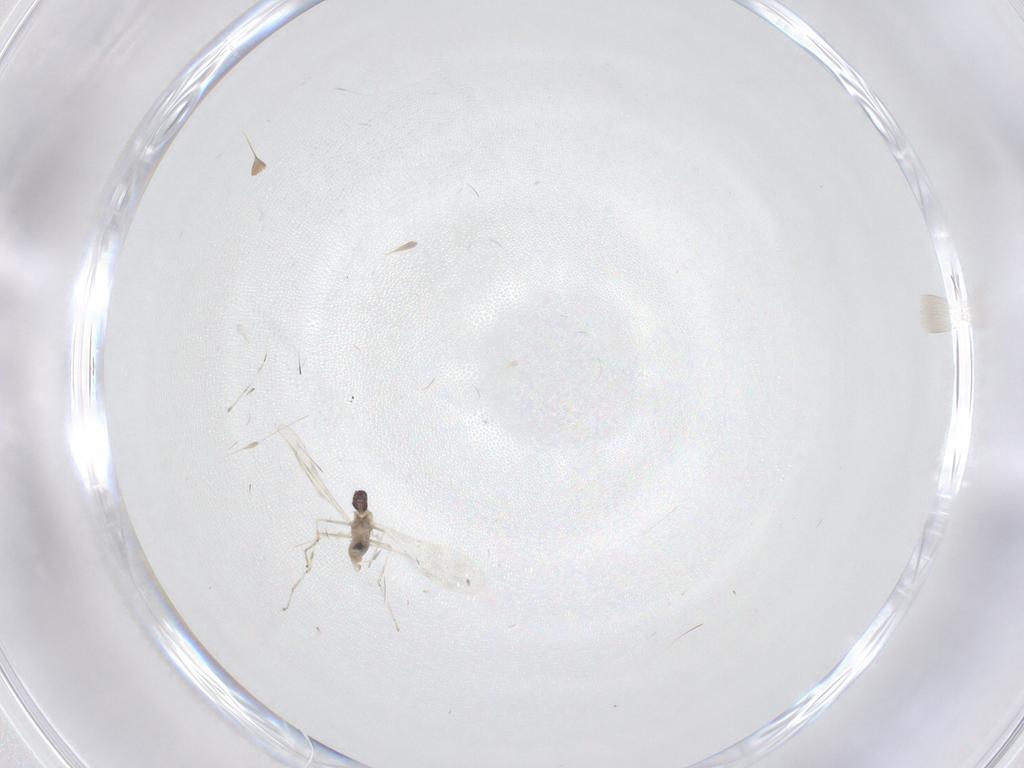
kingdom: Animalia
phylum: Arthropoda
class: Insecta
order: Diptera
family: Cecidomyiidae
